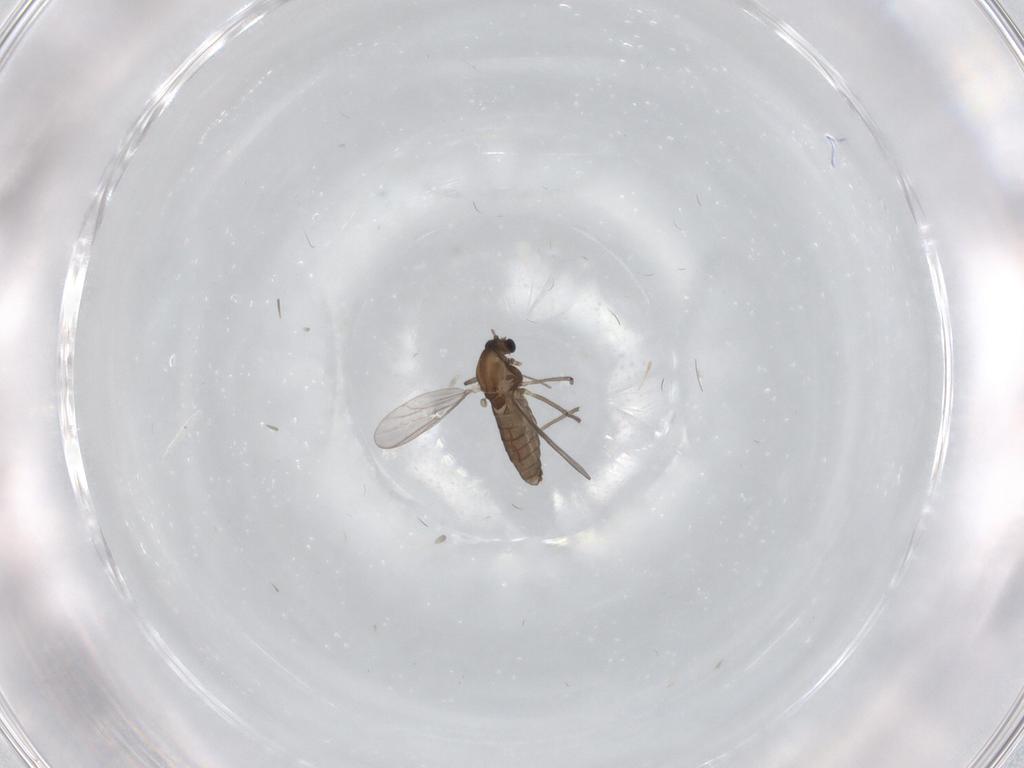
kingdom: Animalia
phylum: Arthropoda
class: Insecta
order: Diptera
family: Chironomidae
